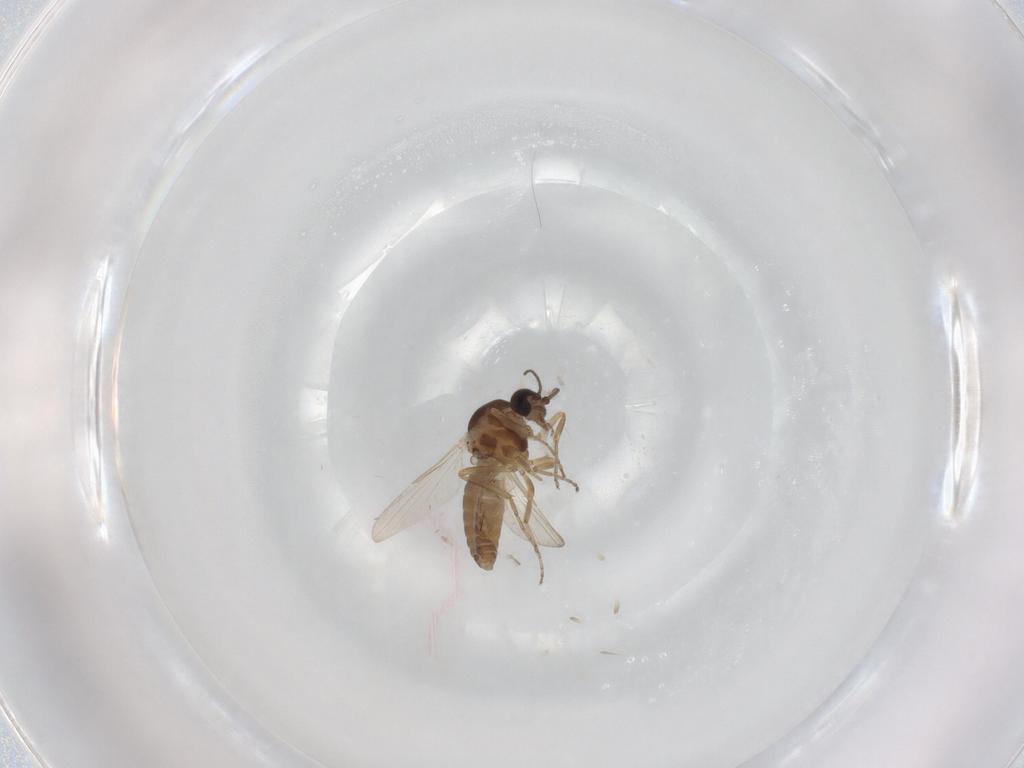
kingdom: Animalia
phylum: Arthropoda
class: Insecta
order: Diptera
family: Ceratopogonidae
